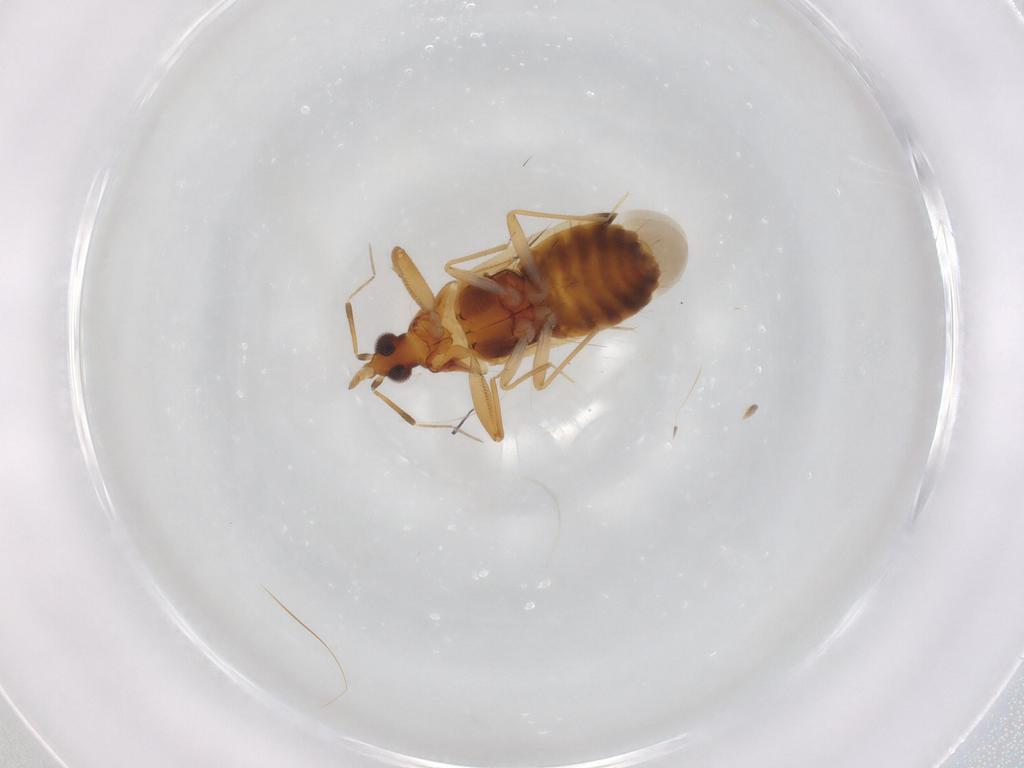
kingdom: Animalia
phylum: Arthropoda
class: Insecta
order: Hemiptera
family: Anthocoridae
